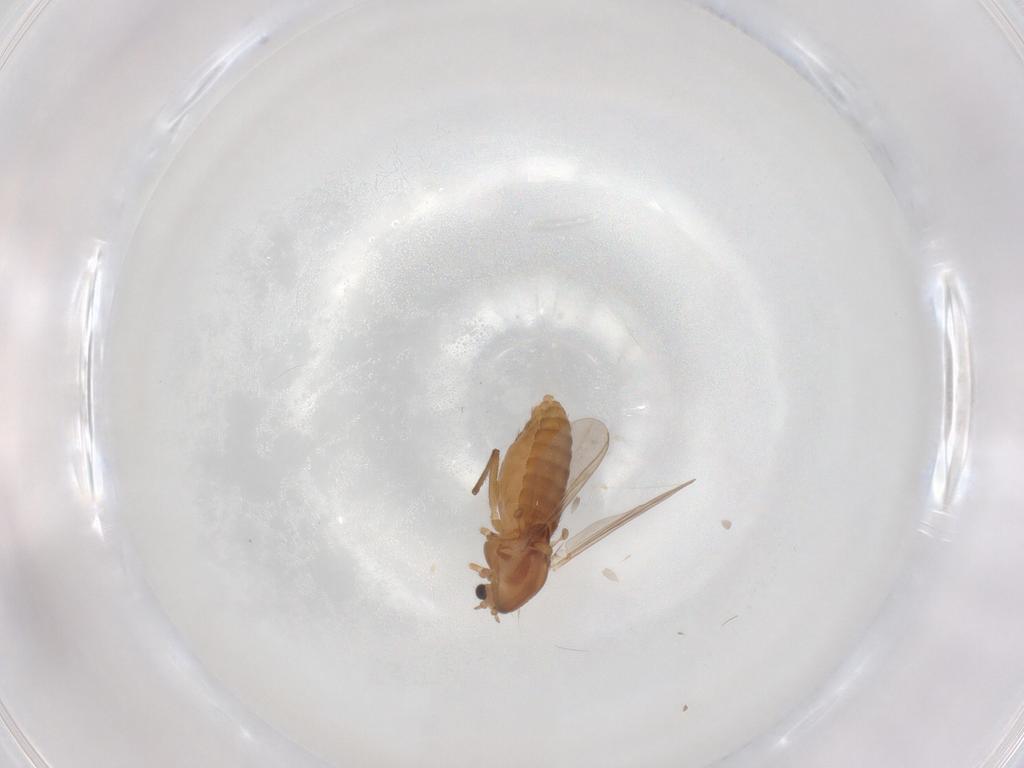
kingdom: Animalia
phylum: Arthropoda
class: Insecta
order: Diptera
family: Chironomidae
